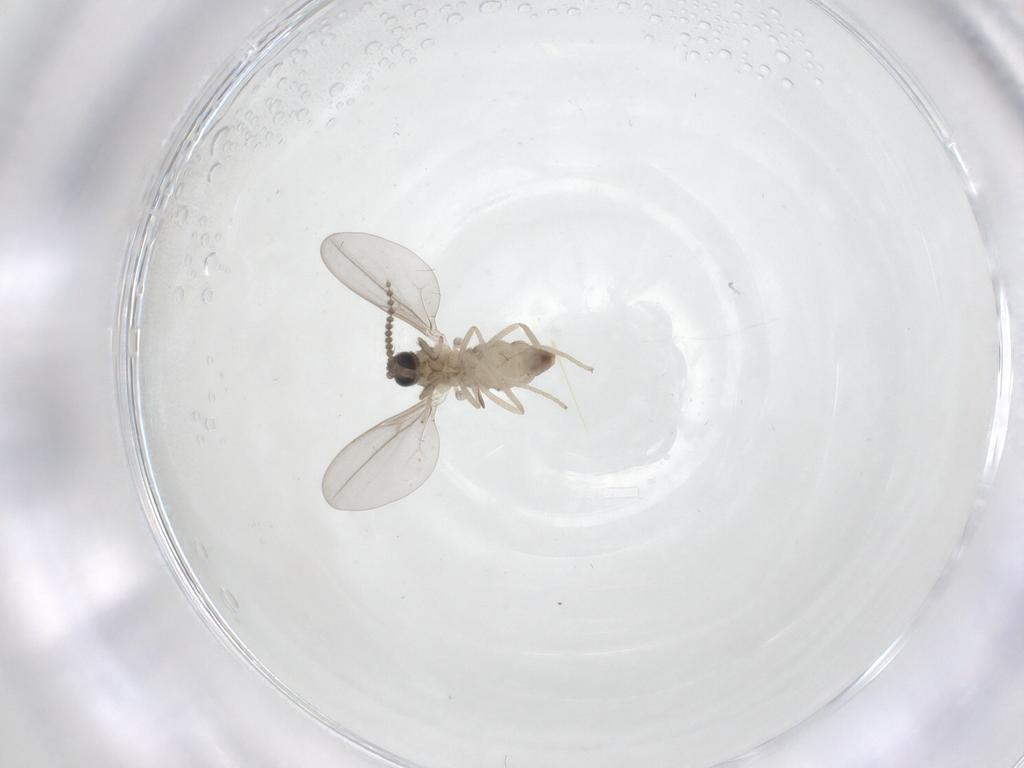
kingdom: Animalia
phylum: Arthropoda
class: Insecta
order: Diptera
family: Cecidomyiidae
